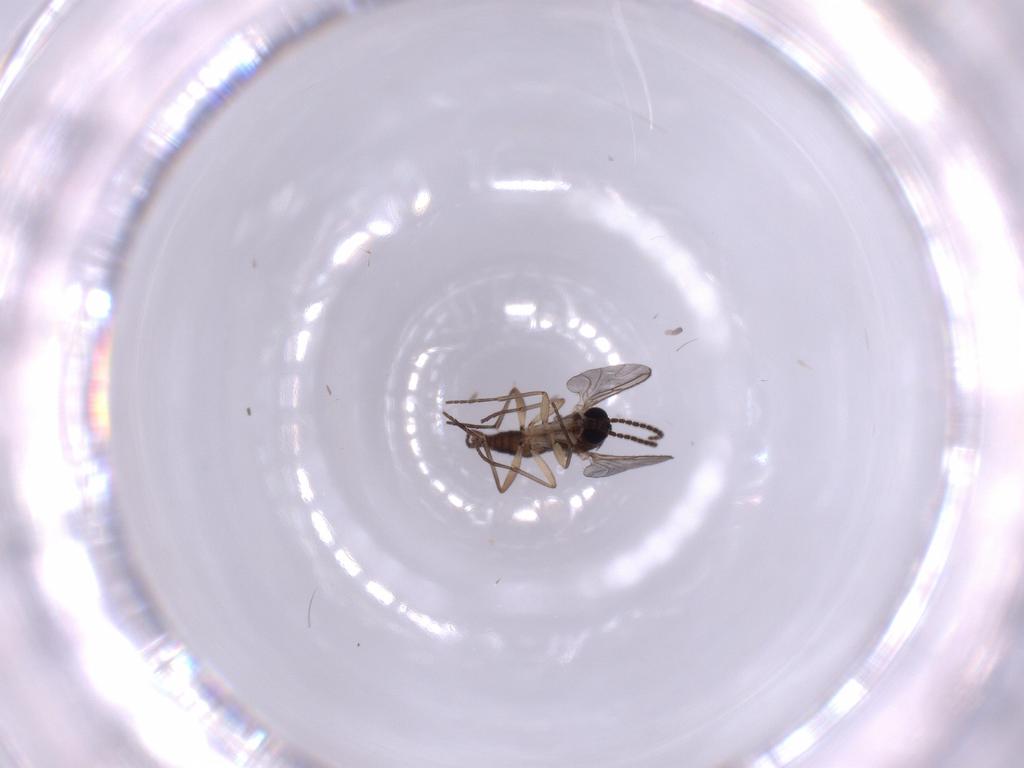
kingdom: Animalia
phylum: Arthropoda
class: Insecta
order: Diptera
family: Sciaridae
